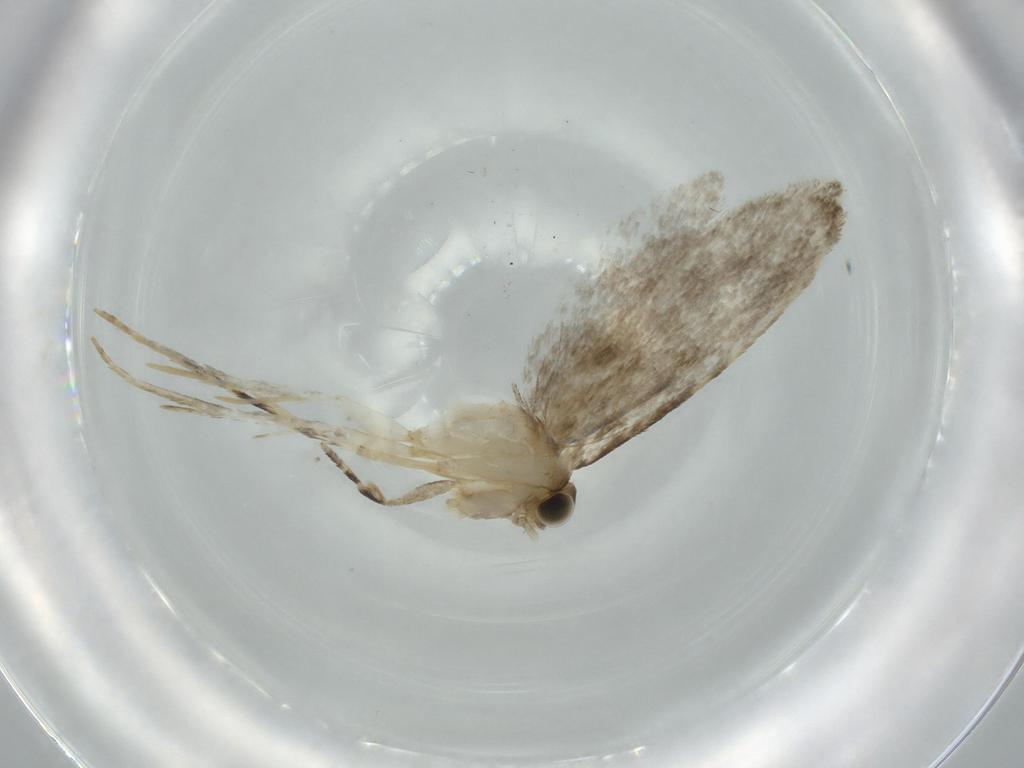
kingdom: Animalia
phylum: Arthropoda
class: Insecta
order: Lepidoptera
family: Tineidae
